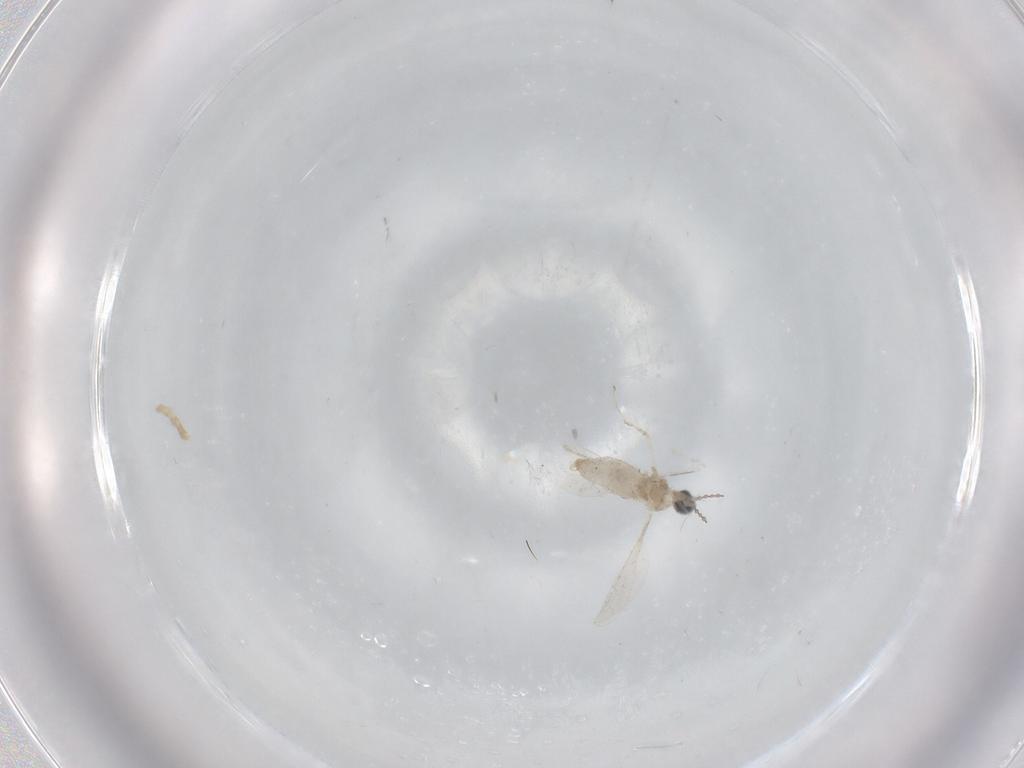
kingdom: Animalia
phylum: Arthropoda
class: Insecta
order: Diptera
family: Cecidomyiidae
